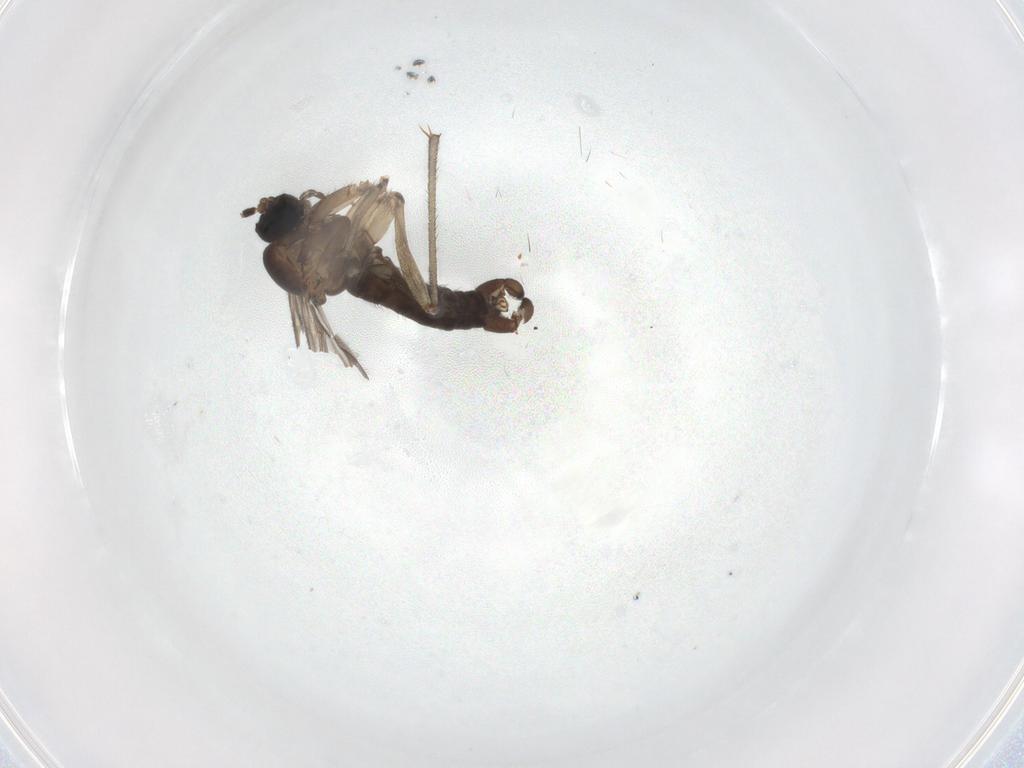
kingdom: Animalia
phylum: Arthropoda
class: Insecta
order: Diptera
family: Sciaridae
